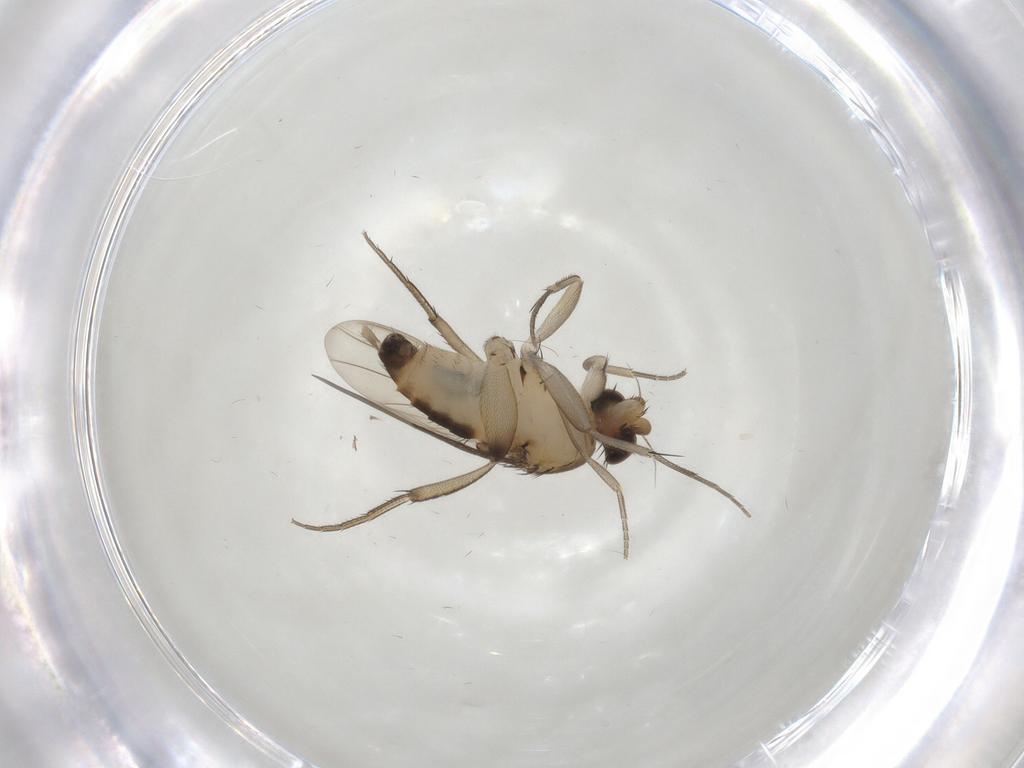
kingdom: Animalia
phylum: Arthropoda
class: Insecta
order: Diptera
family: Phoridae
